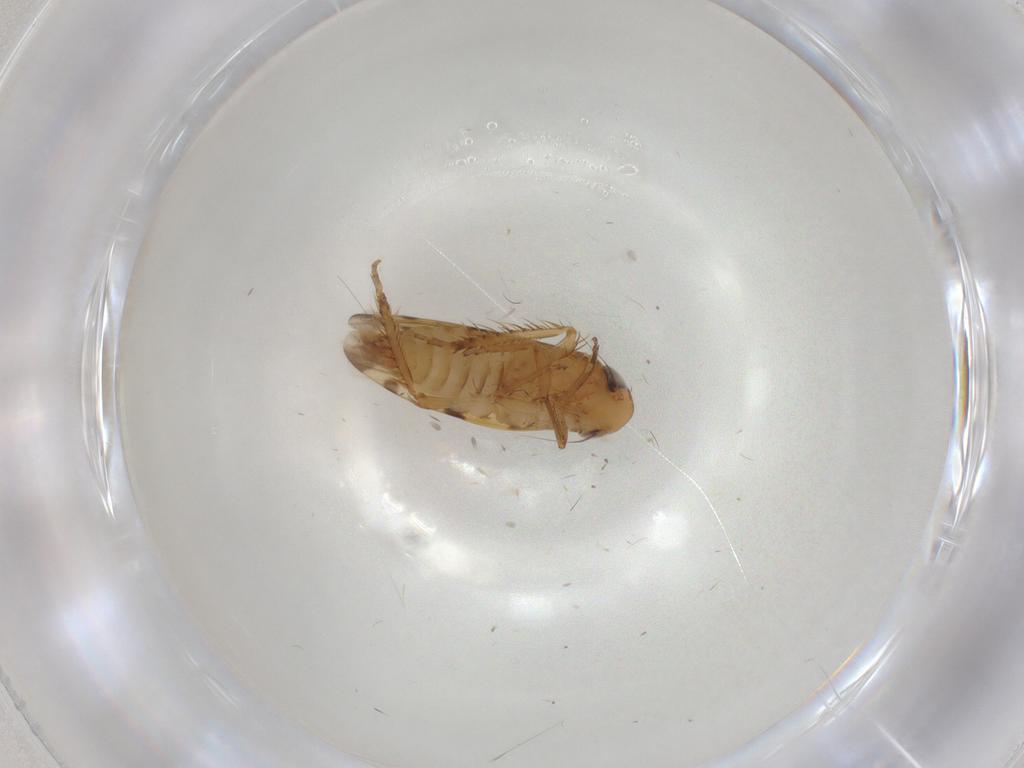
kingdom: Animalia
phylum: Arthropoda
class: Insecta
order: Hemiptera
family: Cicadellidae
